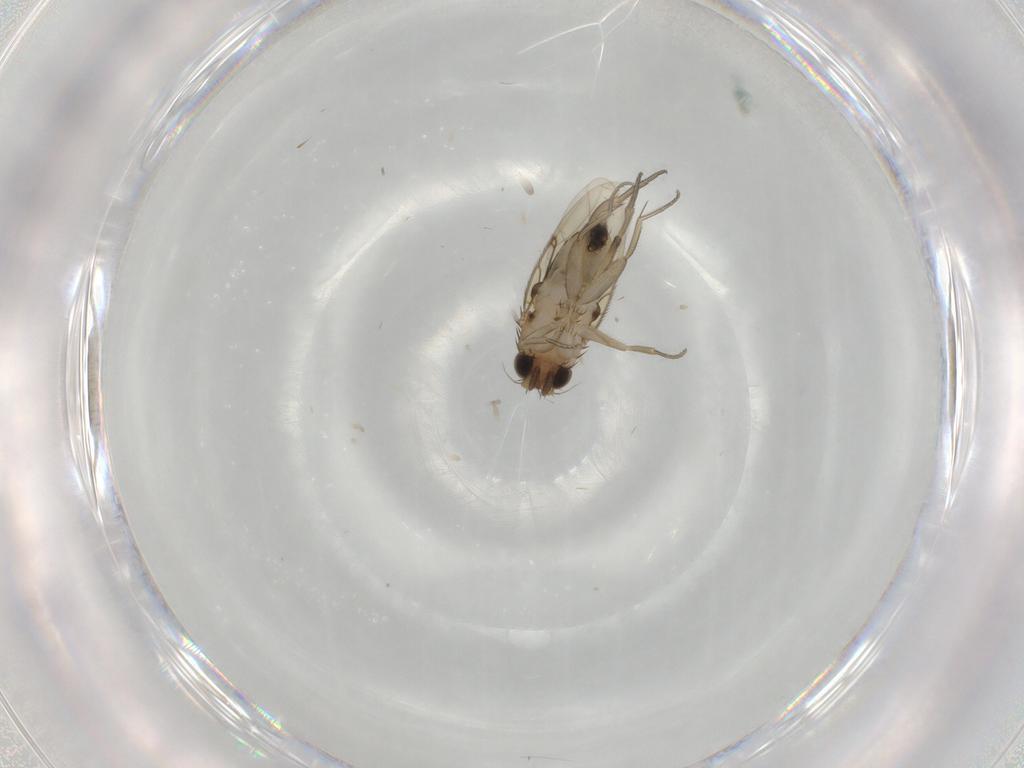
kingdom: Animalia
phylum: Arthropoda
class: Insecta
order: Diptera
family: Phoridae
